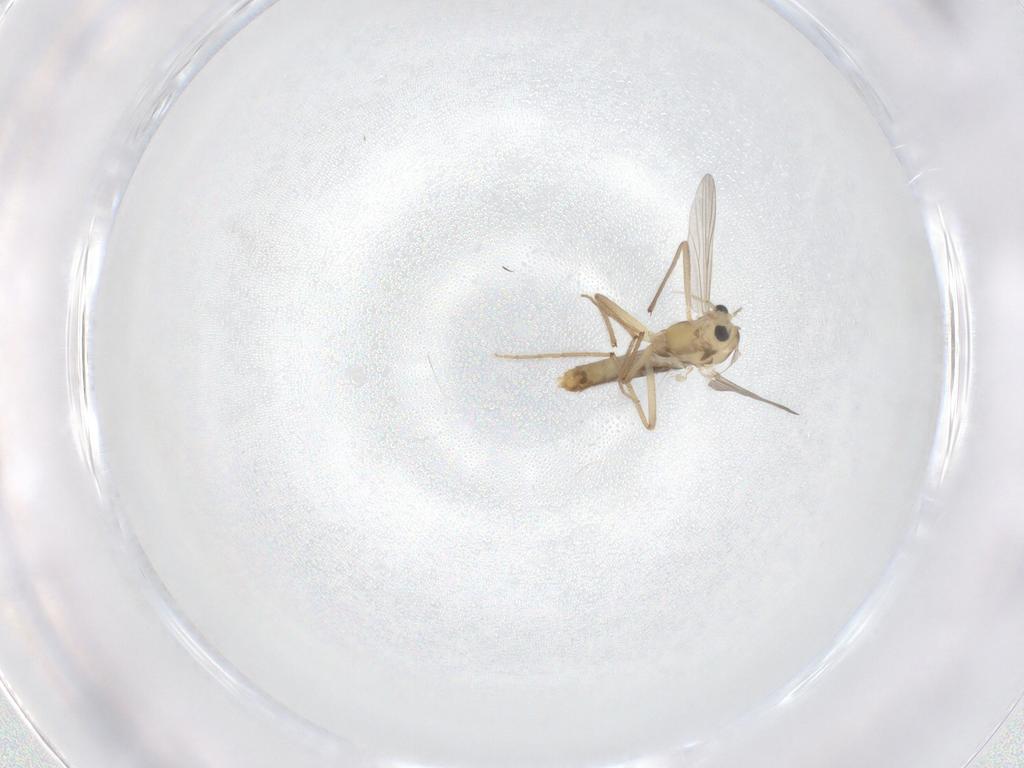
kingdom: Animalia
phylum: Arthropoda
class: Insecta
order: Diptera
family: Chironomidae
